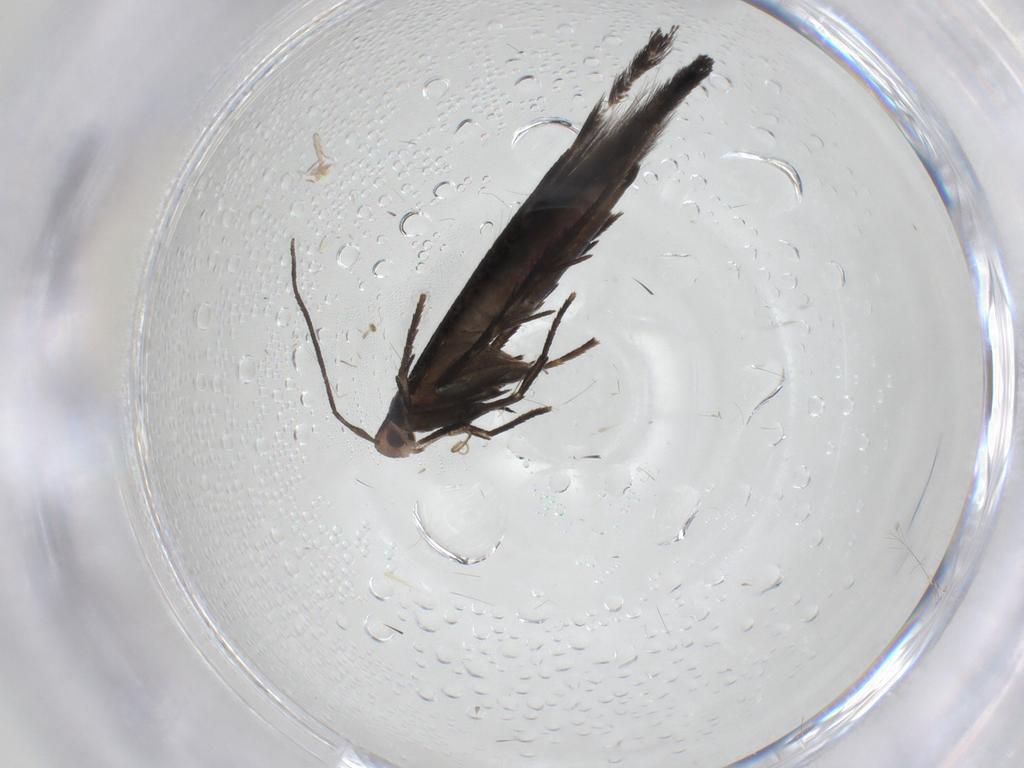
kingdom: Animalia
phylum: Arthropoda
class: Insecta
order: Lepidoptera
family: Cosmopterigidae
